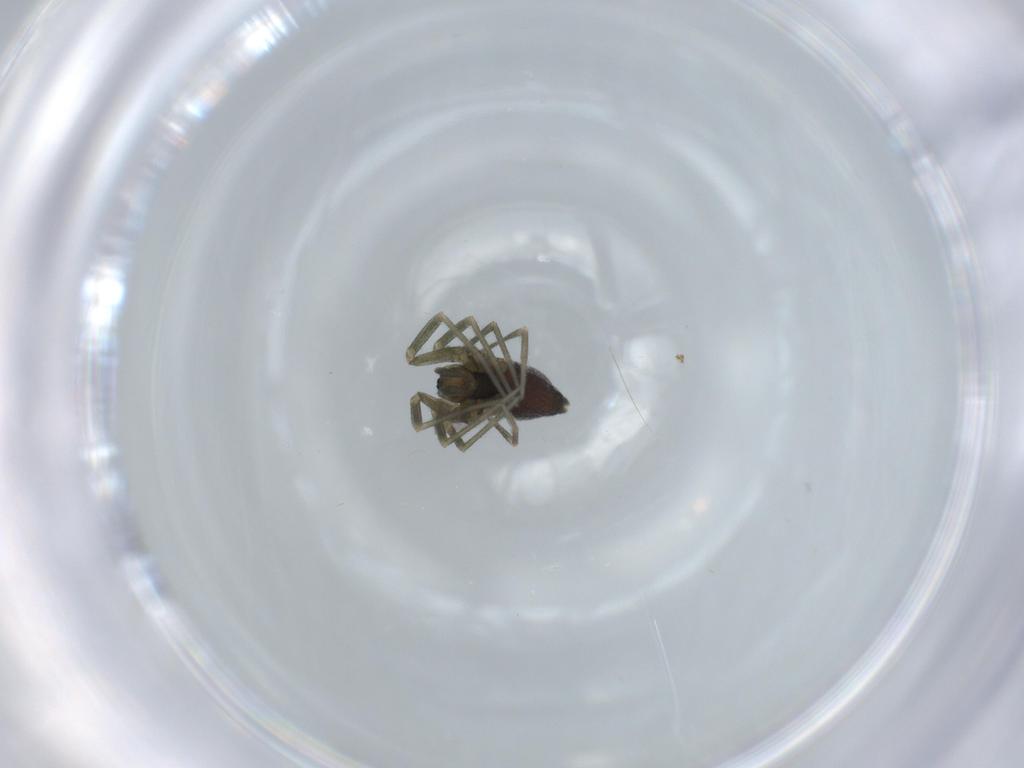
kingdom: Animalia
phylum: Arthropoda
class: Arachnida
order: Araneae
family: Linyphiidae
